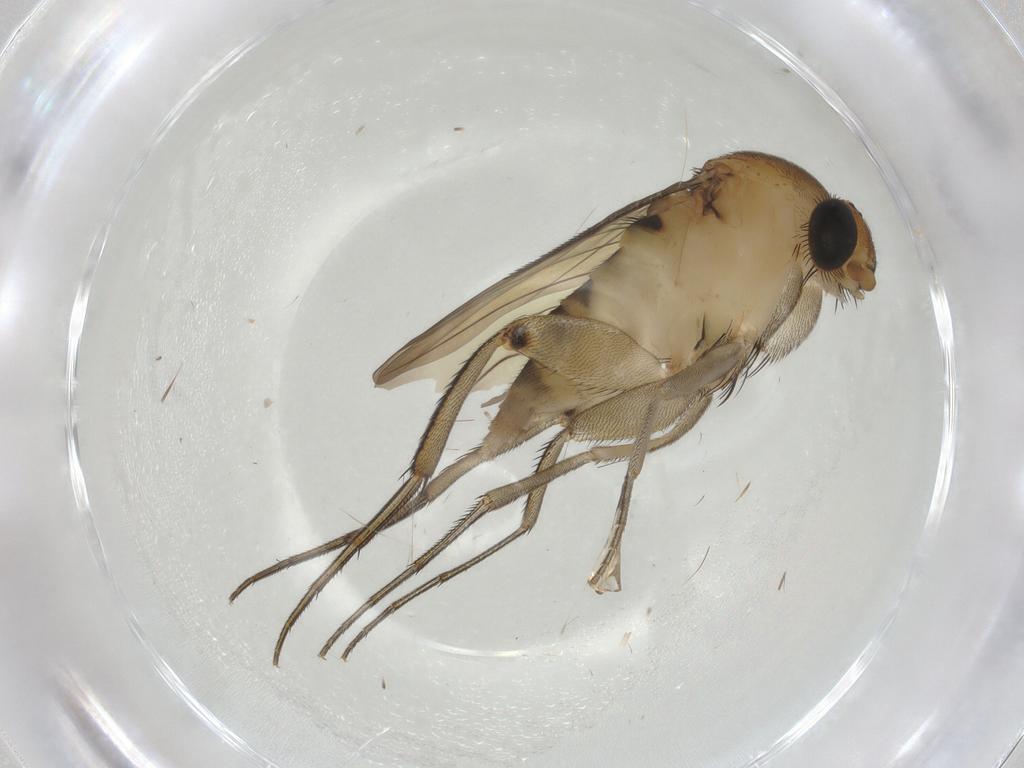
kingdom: Animalia
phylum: Arthropoda
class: Insecta
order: Diptera
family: Phoridae
